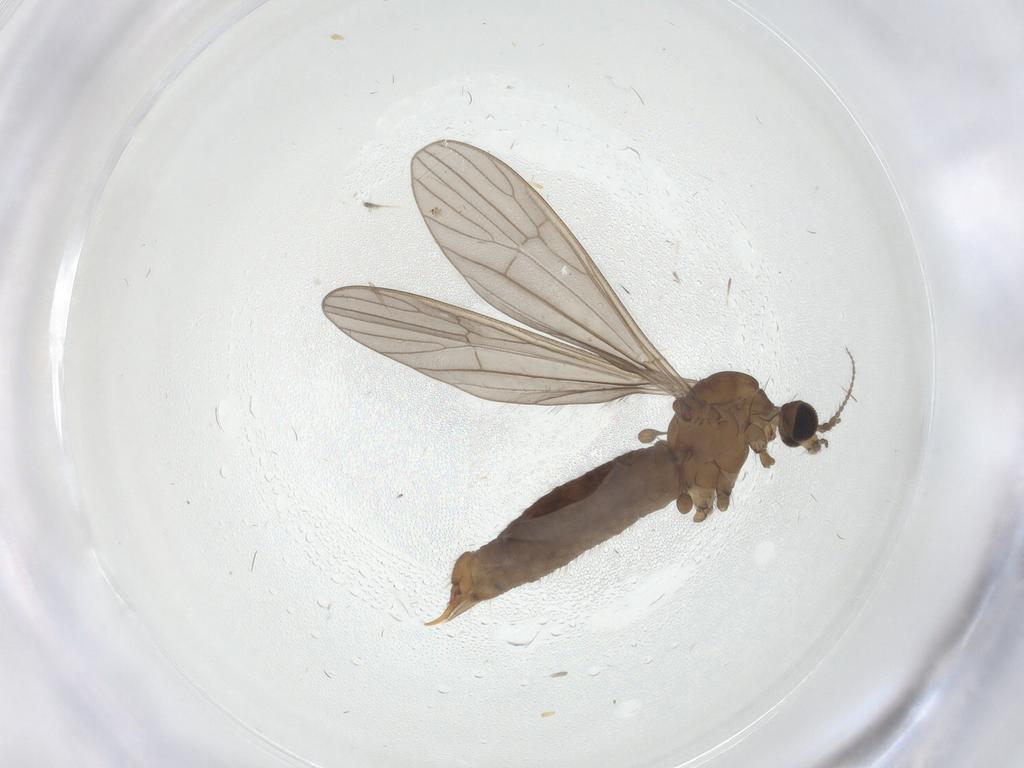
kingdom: Animalia
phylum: Arthropoda
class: Insecta
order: Diptera
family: Limoniidae
